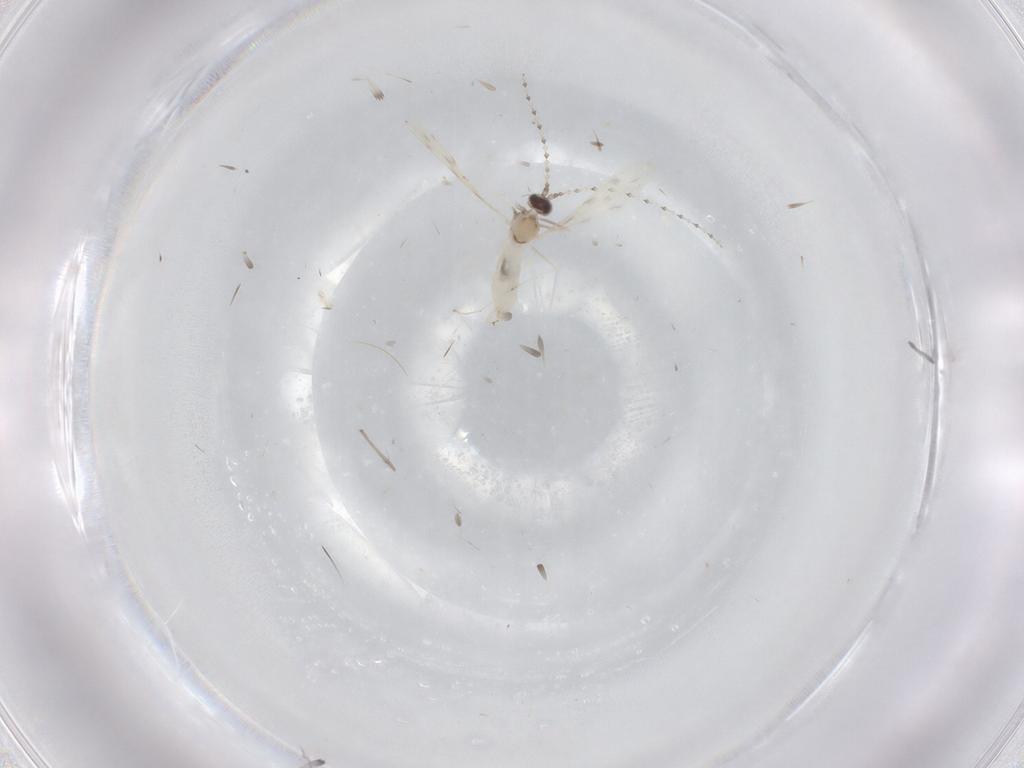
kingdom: Animalia
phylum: Arthropoda
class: Insecta
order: Diptera
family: Cecidomyiidae
